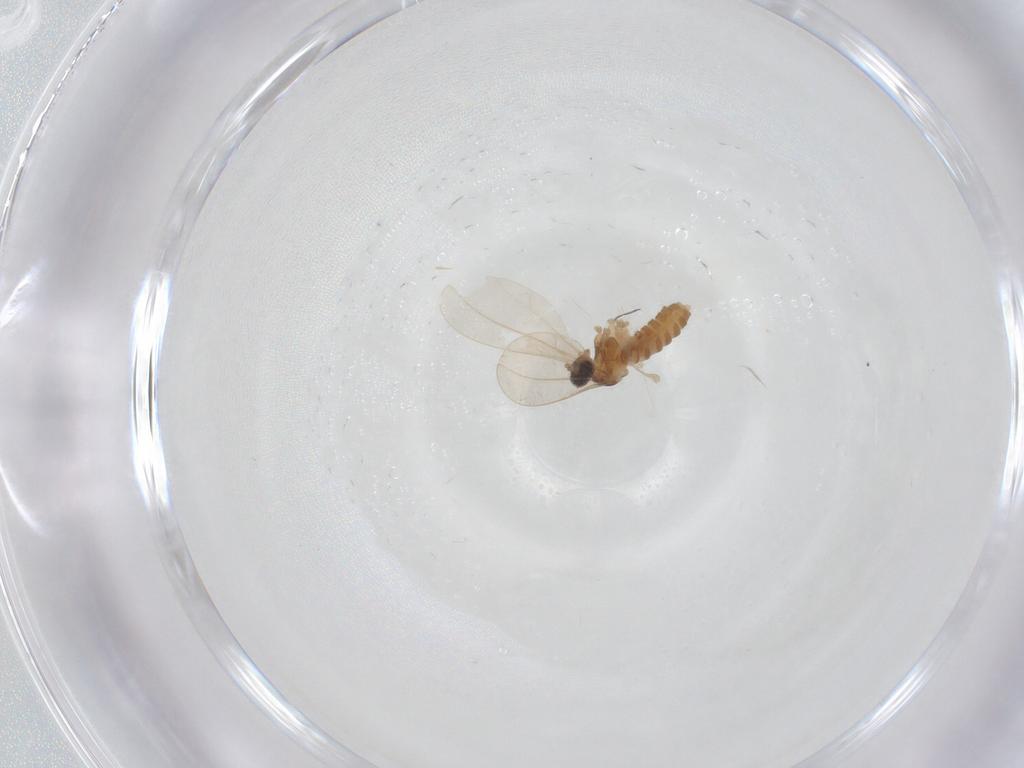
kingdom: Animalia
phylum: Arthropoda
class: Insecta
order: Diptera
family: Cecidomyiidae
